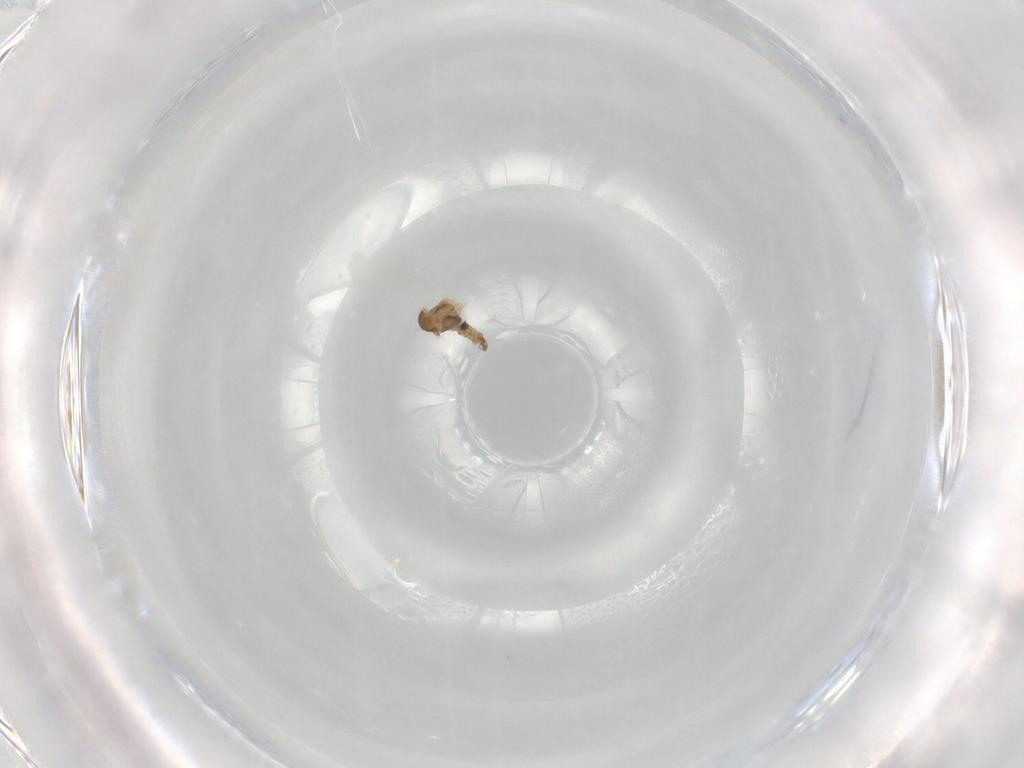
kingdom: Animalia
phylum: Arthropoda
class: Insecta
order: Diptera
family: Cecidomyiidae
